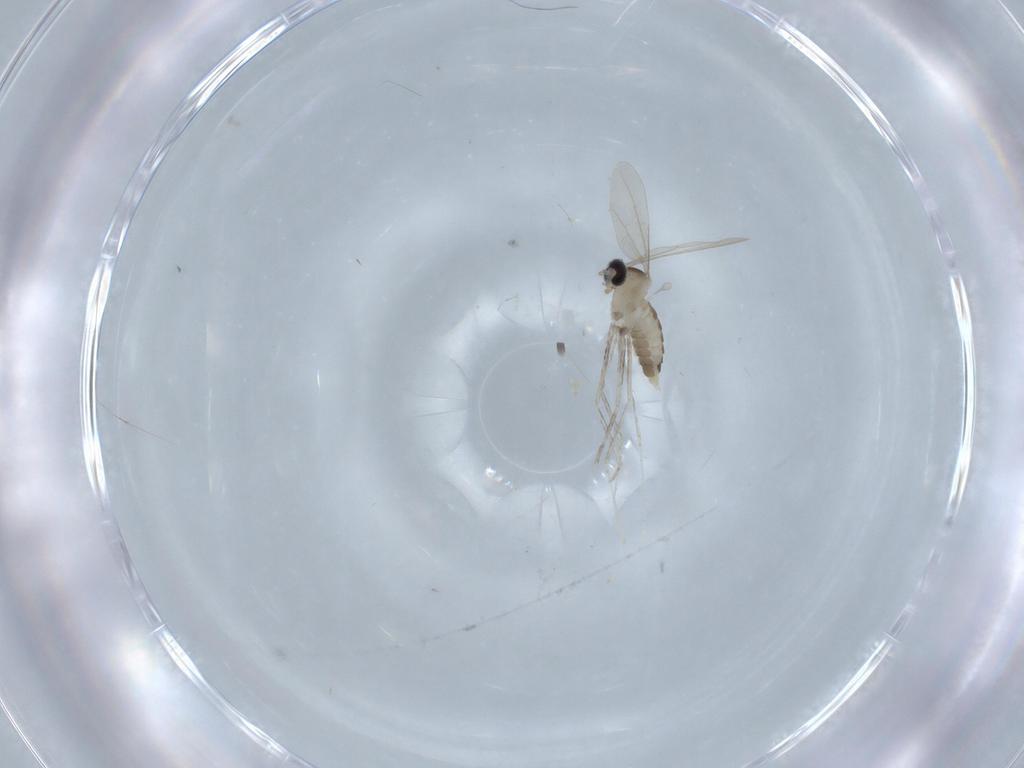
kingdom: Animalia
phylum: Arthropoda
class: Insecta
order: Diptera
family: Cecidomyiidae
